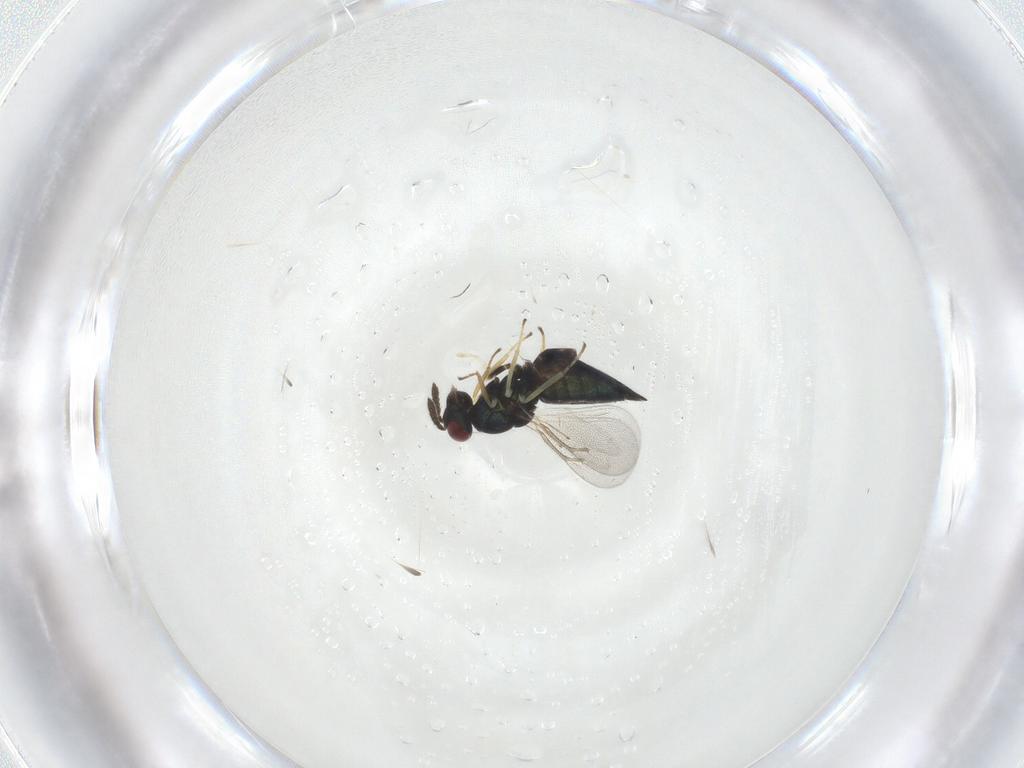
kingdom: Animalia
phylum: Arthropoda
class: Insecta
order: Hymenoptera
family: Eulophidae
